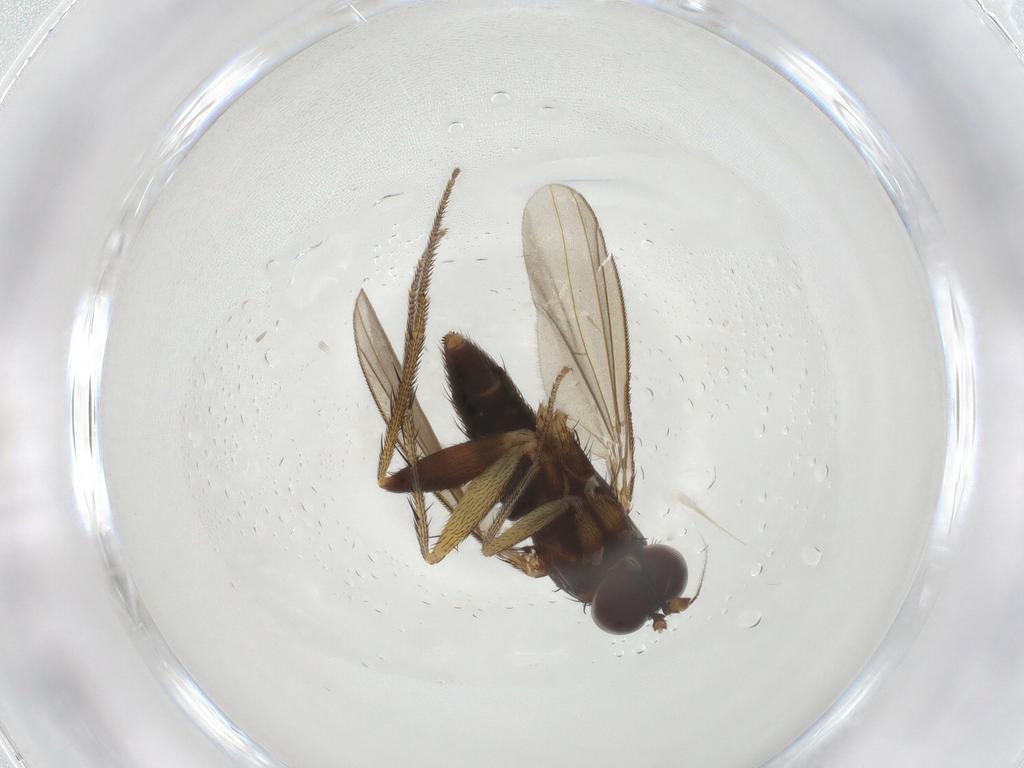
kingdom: Animalia
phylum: Arthropoda
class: Insecta
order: Diptera
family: Dolichopodidae
